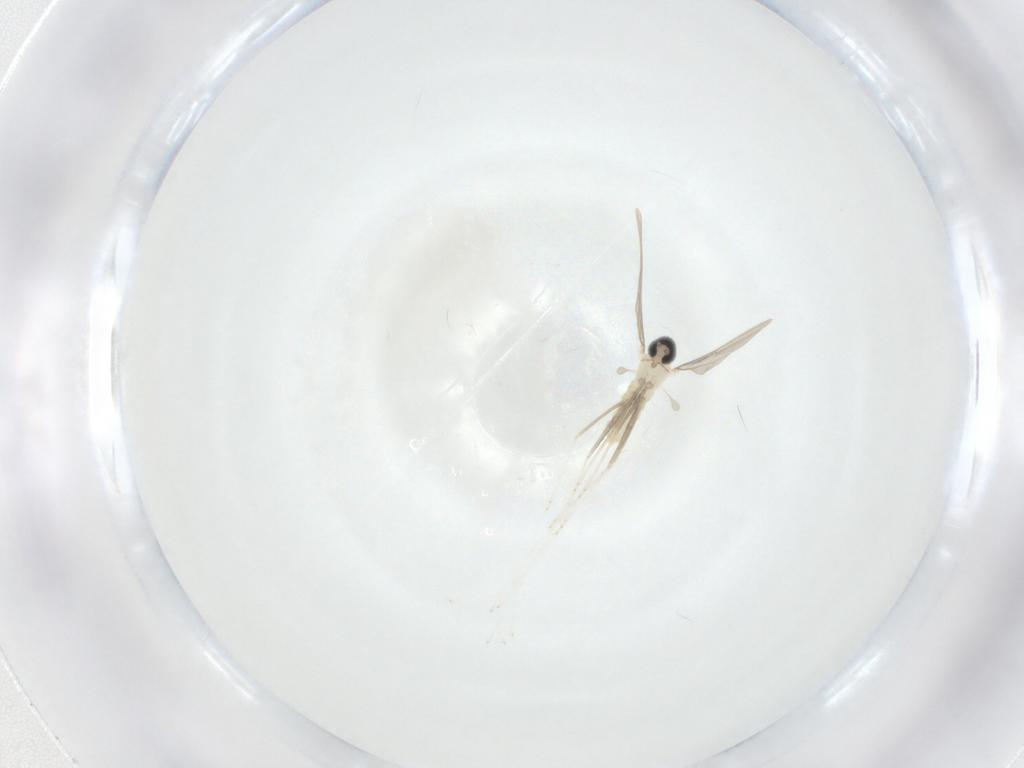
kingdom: Animalia
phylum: Arthropoda
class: Insecta
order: Diptera
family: Cecidomyiidae
